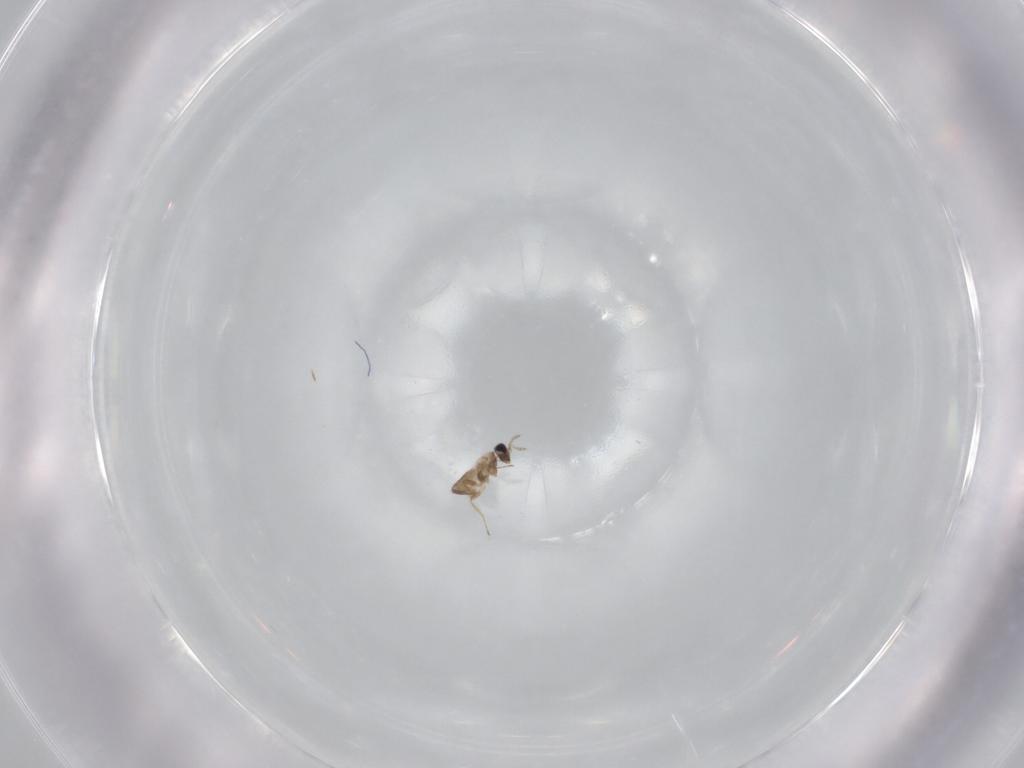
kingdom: Animalia
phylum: Arthropoda
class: Insecta
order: Hymenoptera
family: Trichogrammatidae
